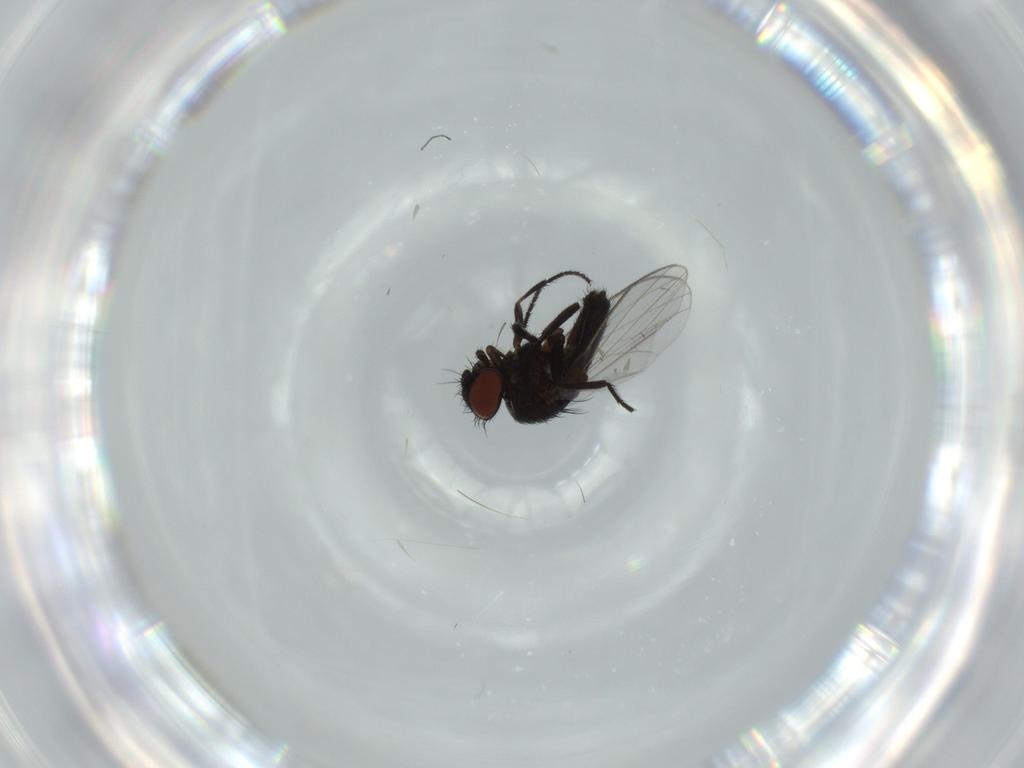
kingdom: Animalia
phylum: Arthropoda
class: Insecta
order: Diptera
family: Milichiidae
